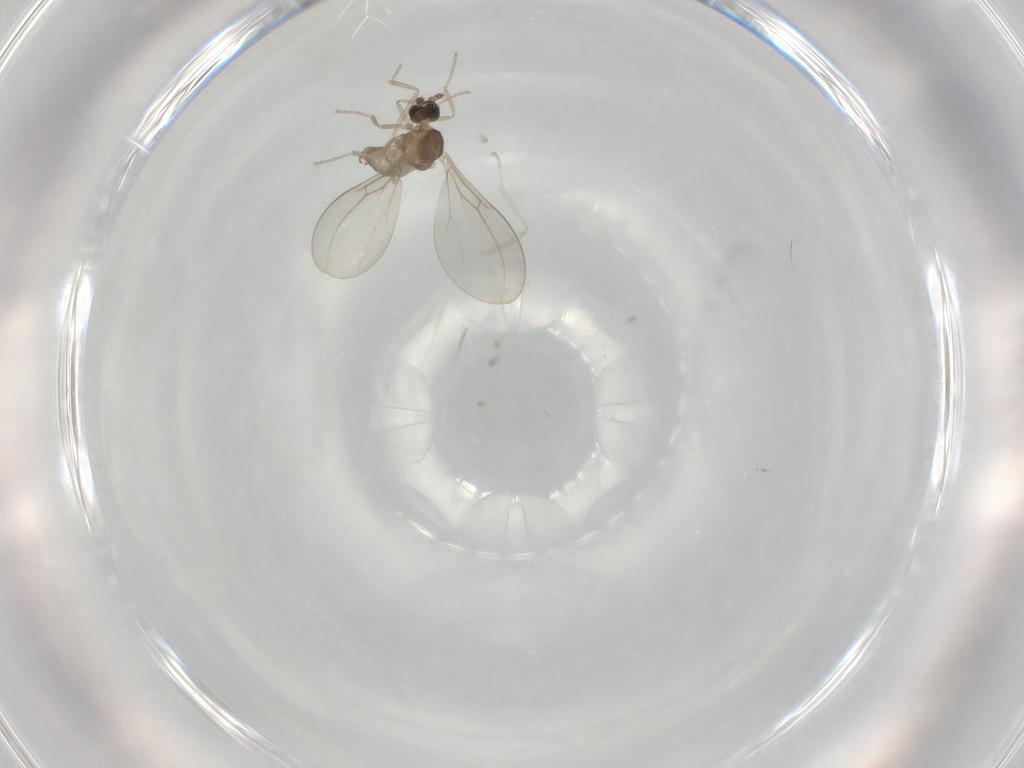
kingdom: Animalia
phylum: Arthropoda
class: Insecta
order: Diptera
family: Cecidomyiidae
